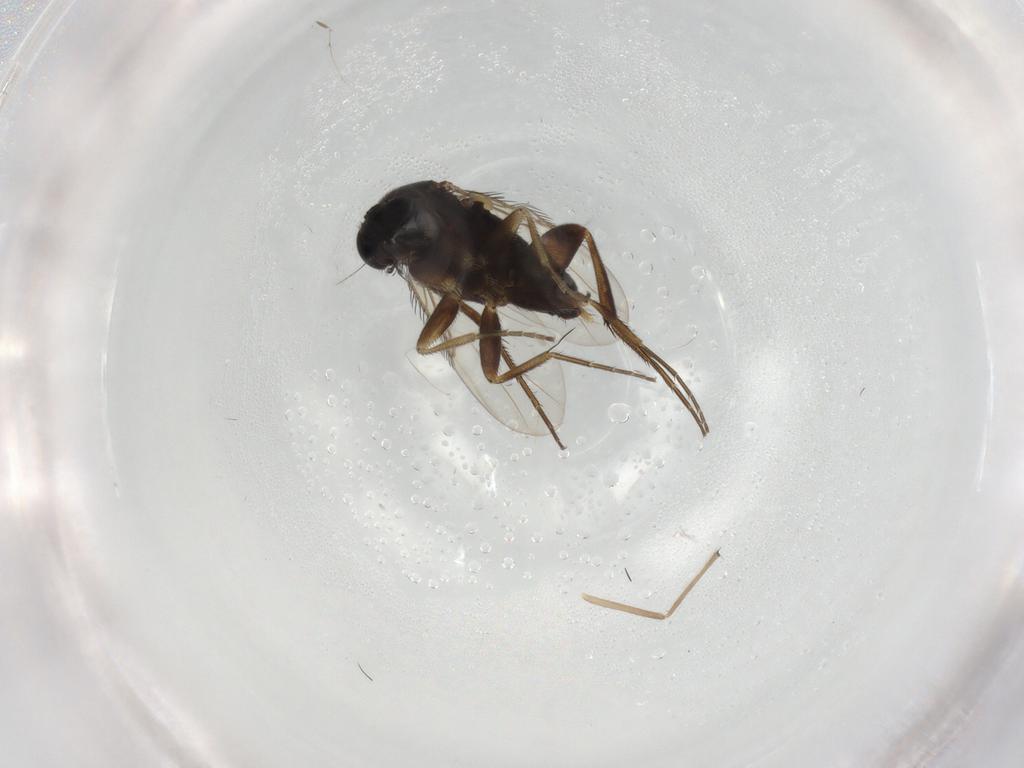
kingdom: Animalia
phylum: Arthropoda
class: Insecta
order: Diptera
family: Phoridae
